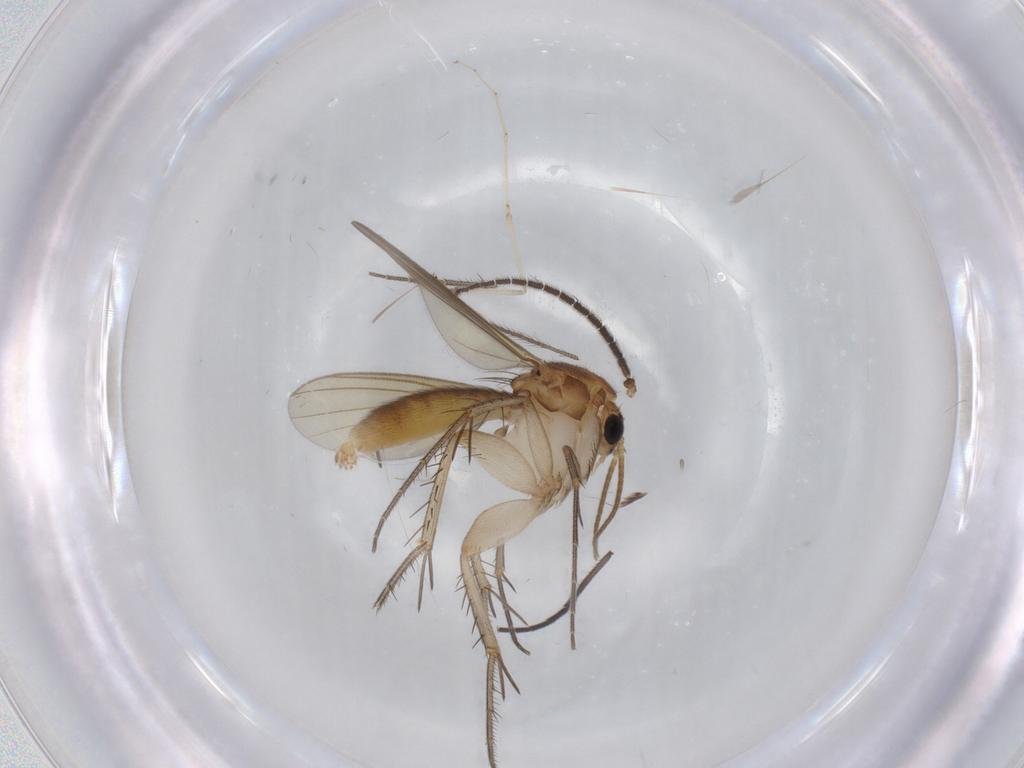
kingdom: Animalia
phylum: Arthropoda
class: Insecta
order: Diptera
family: Mycetophilidae
